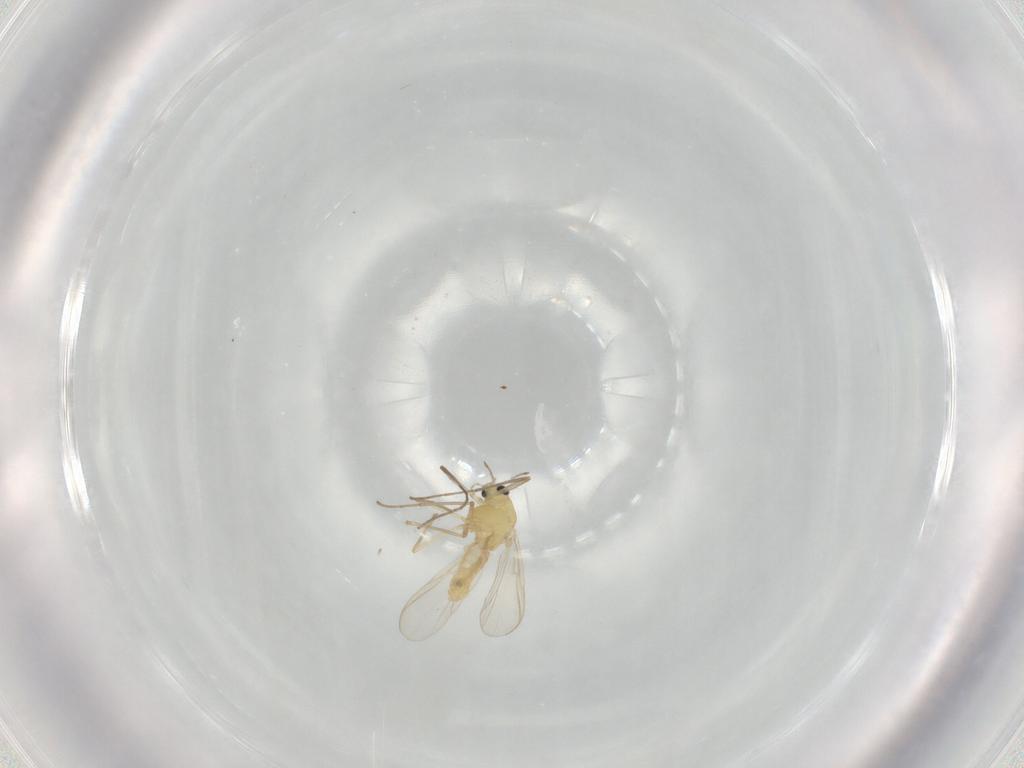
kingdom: Animalia
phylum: Arthropoda
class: Insecta
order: Diptera
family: Chironomidae
